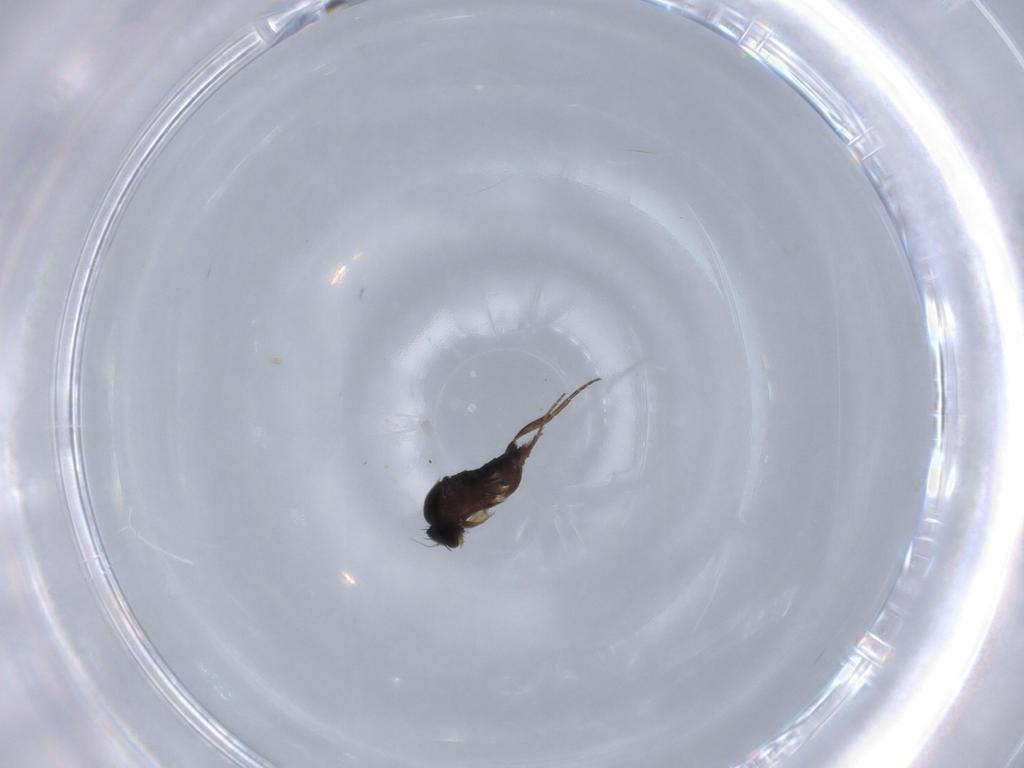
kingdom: Animalia
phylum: Arthropoda
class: Insecta
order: Diptera
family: Phoridae
